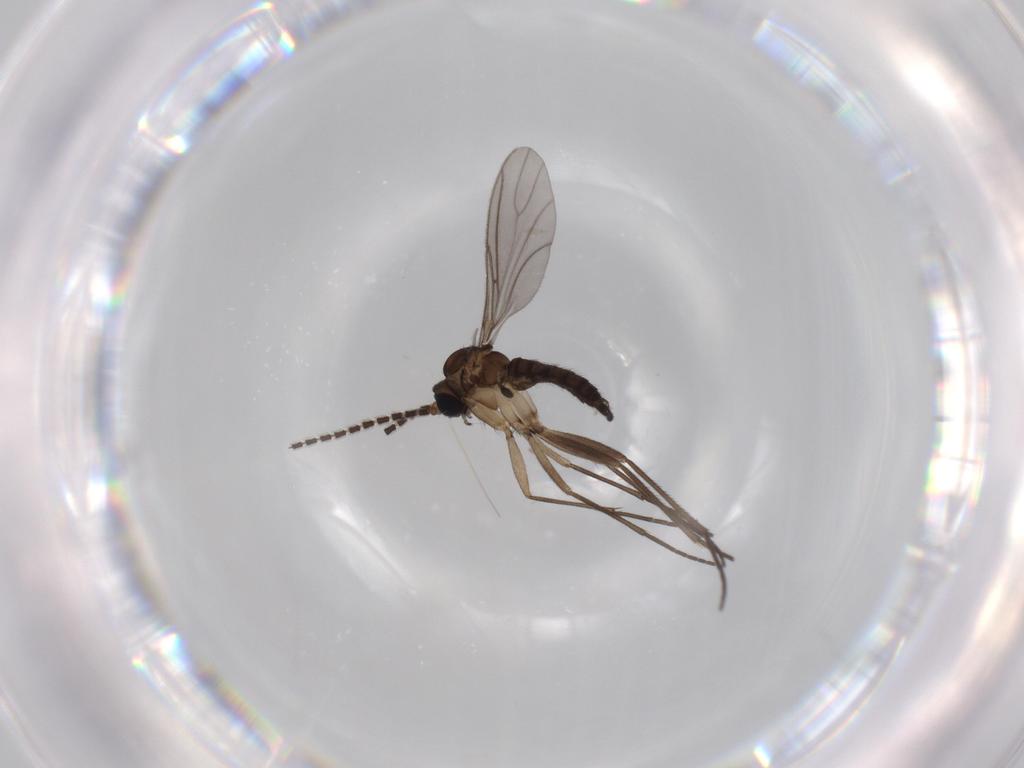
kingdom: Animalia
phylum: Arthropoda
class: Insecta
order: Diptera
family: Sciaridae
